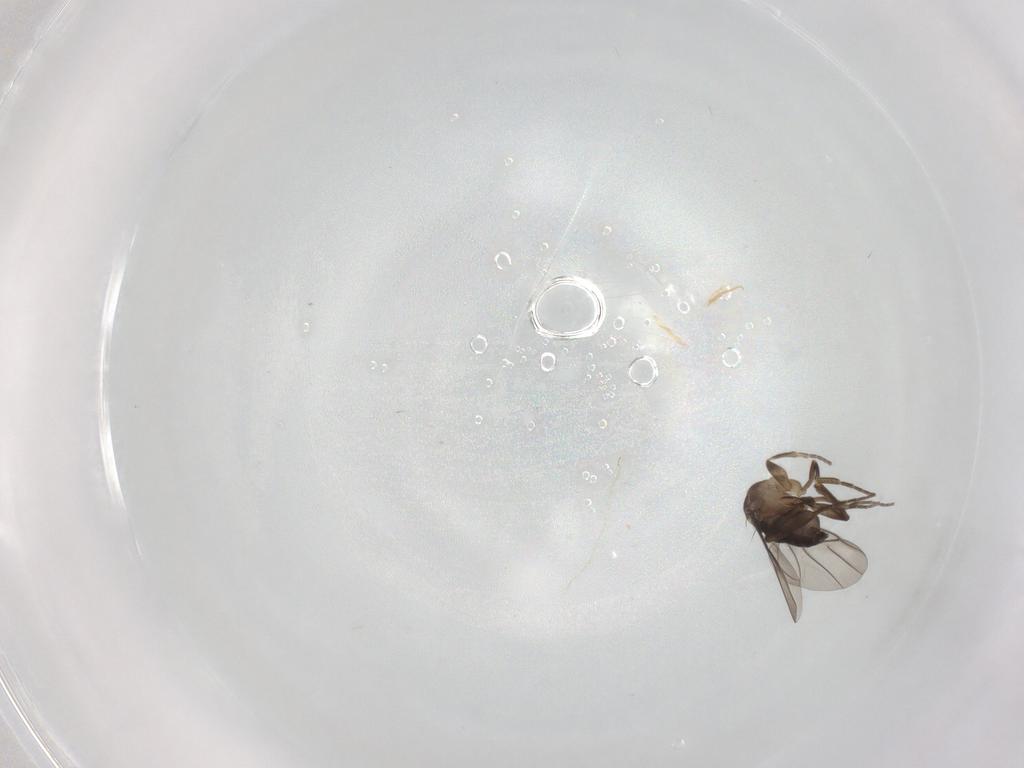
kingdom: Animalia
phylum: Arthropoda
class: Insecta
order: Diptera
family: Phoridae
